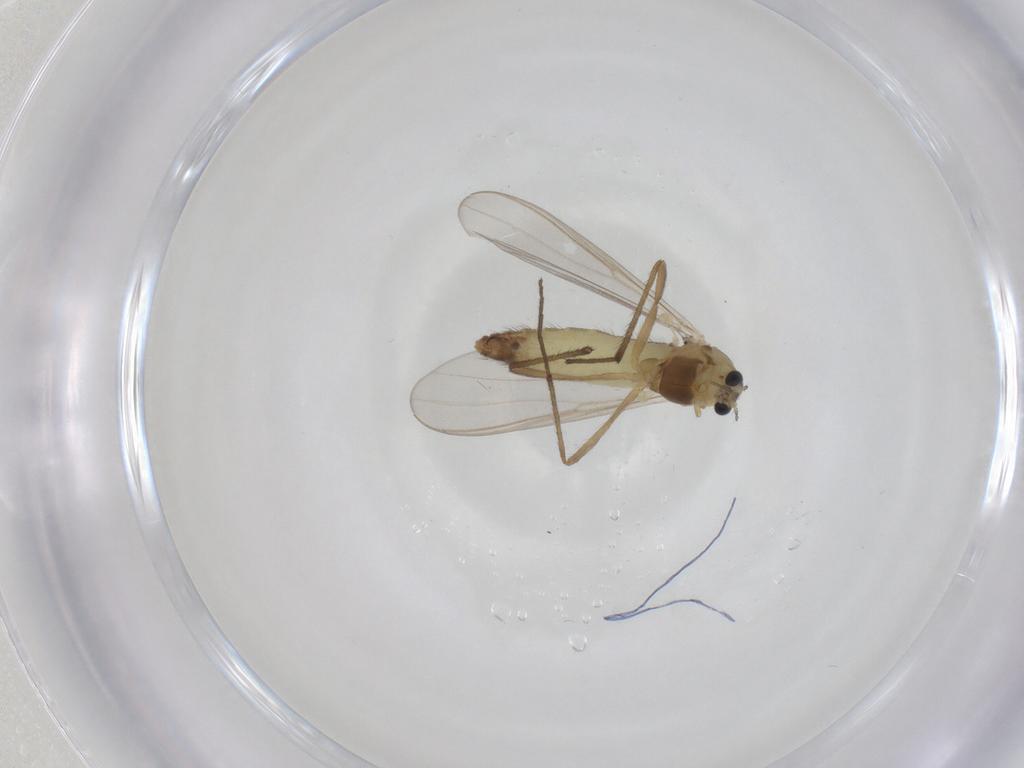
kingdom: Animalia
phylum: Arthropoda
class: Insecta
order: Diptera
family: Chironomidae
